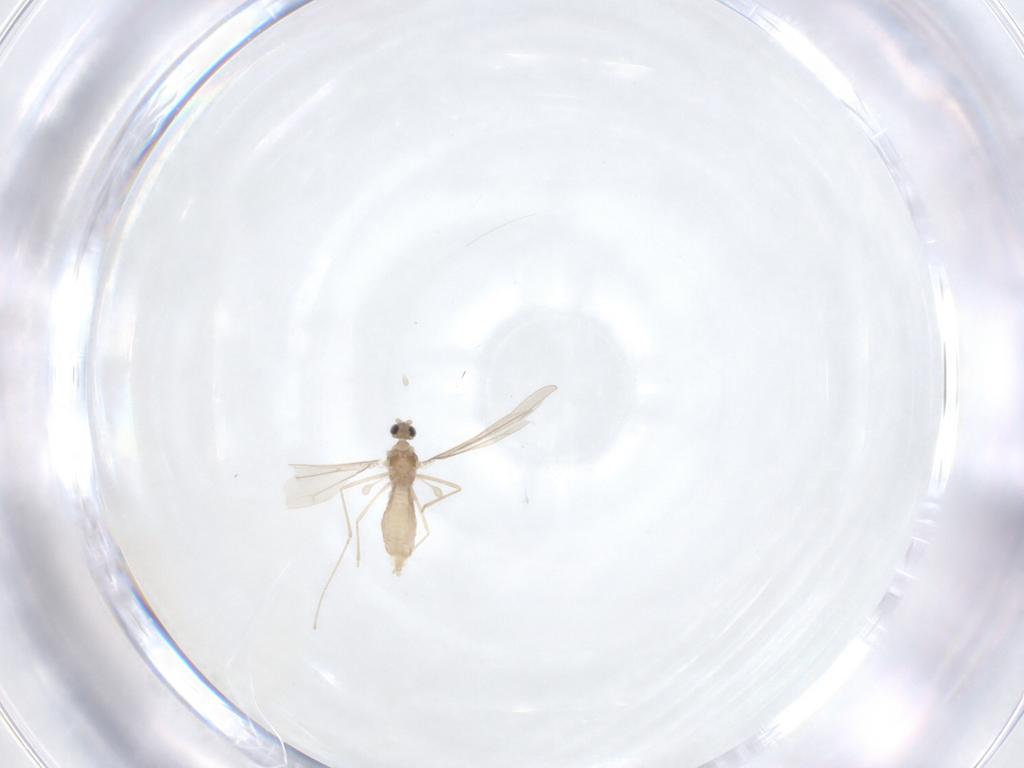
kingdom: Animalia
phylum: Arthropoda
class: Insecta
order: Diptera
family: Cecidomyiidae
